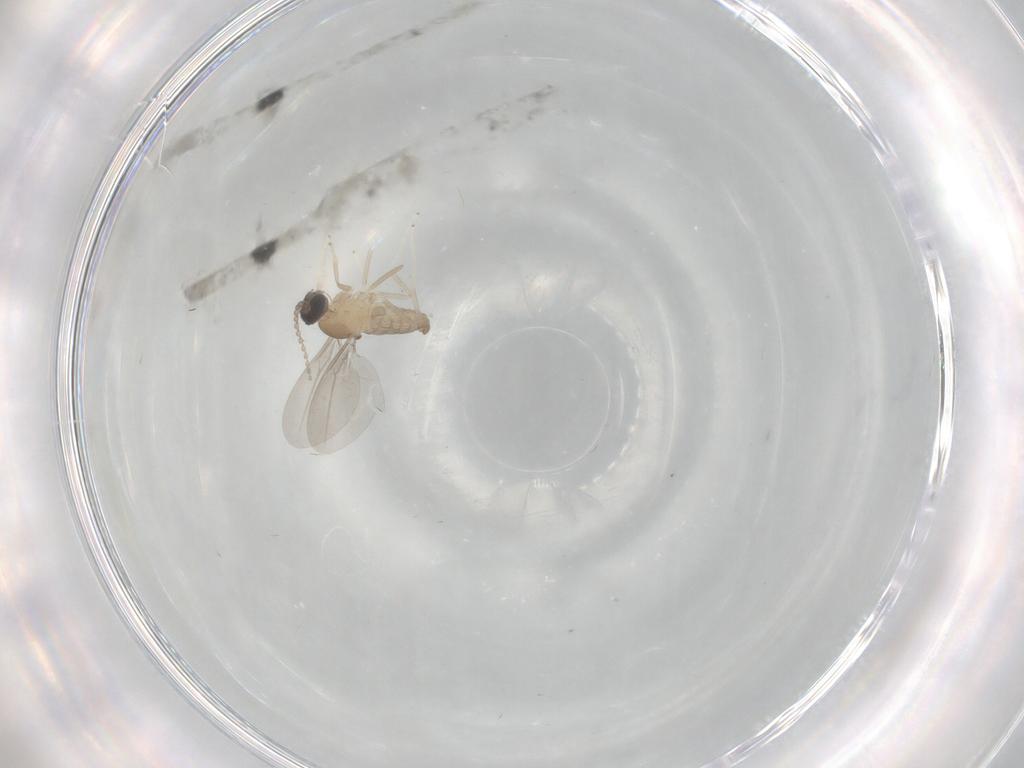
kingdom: Animalia
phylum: Arthropoda
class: Insecta
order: Diptera
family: Cecidomyiidae
